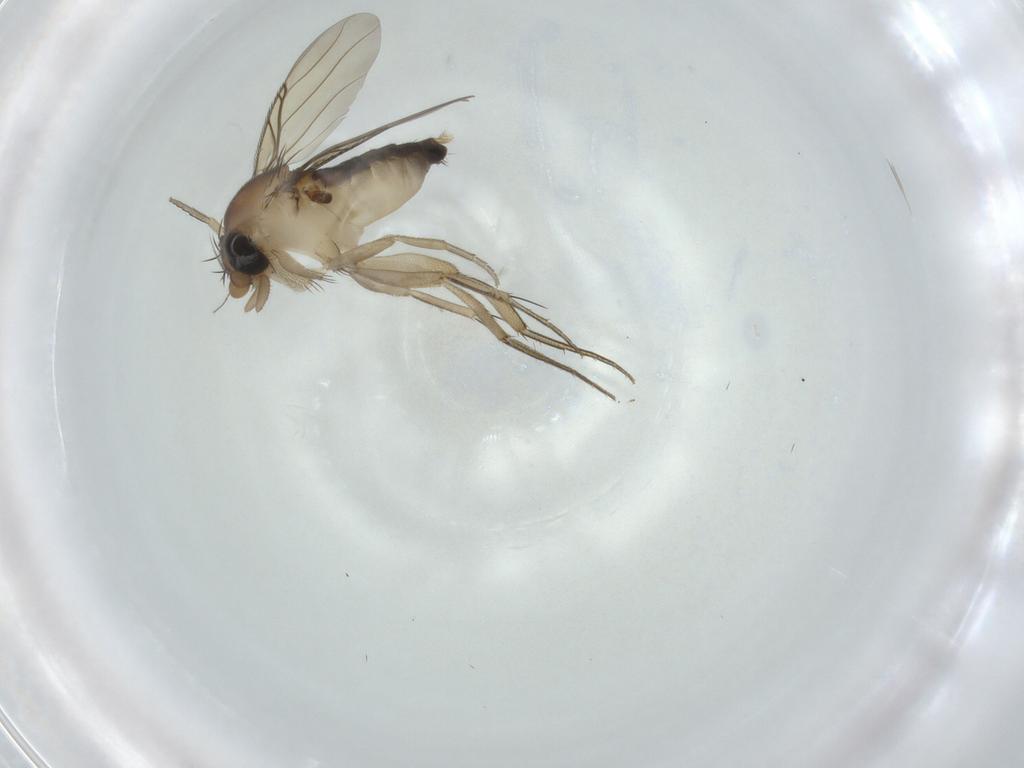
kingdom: Animalia
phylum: Arthropoda
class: Insecta
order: Diptera
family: Phoridae
